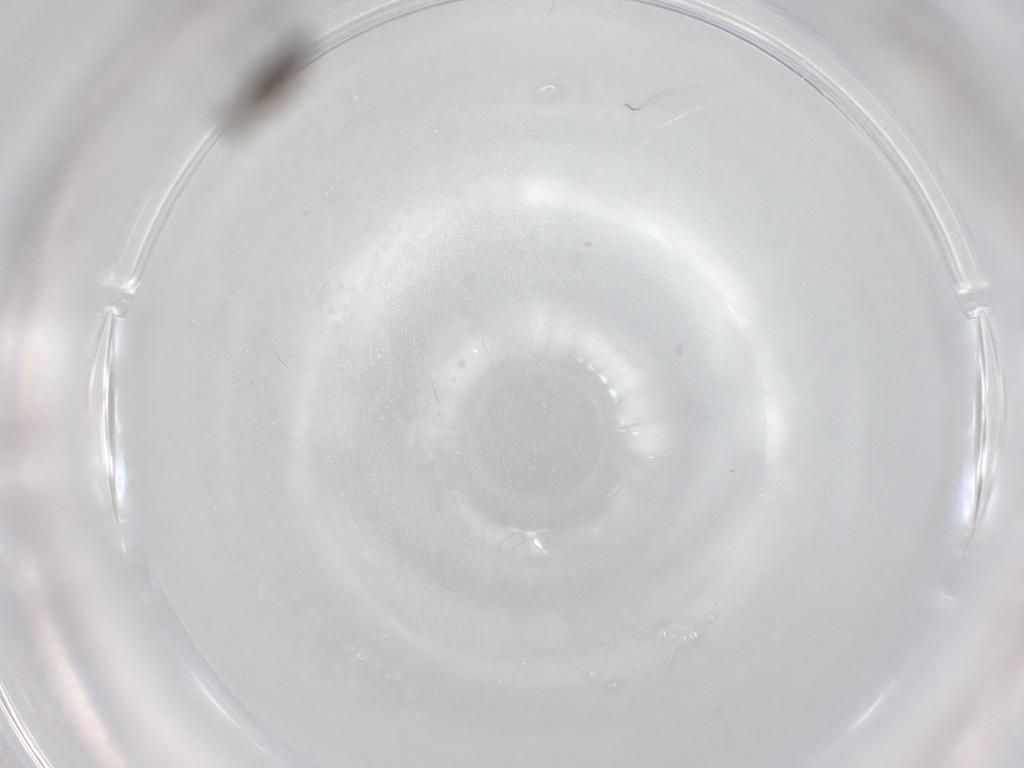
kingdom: Animalia
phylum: Arthropoda
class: Insecta
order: Diptera
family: Cecidomyiidae
